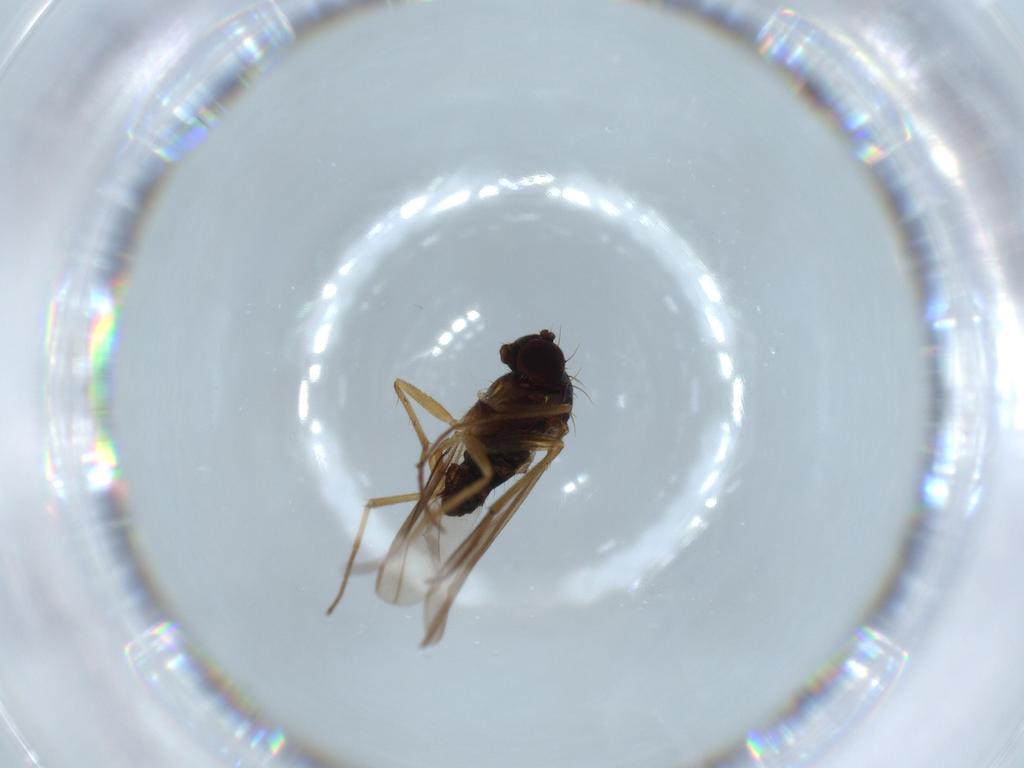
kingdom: Animalia
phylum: Arthropoda
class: Insecta
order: Diptera
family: Dolichopodidae
